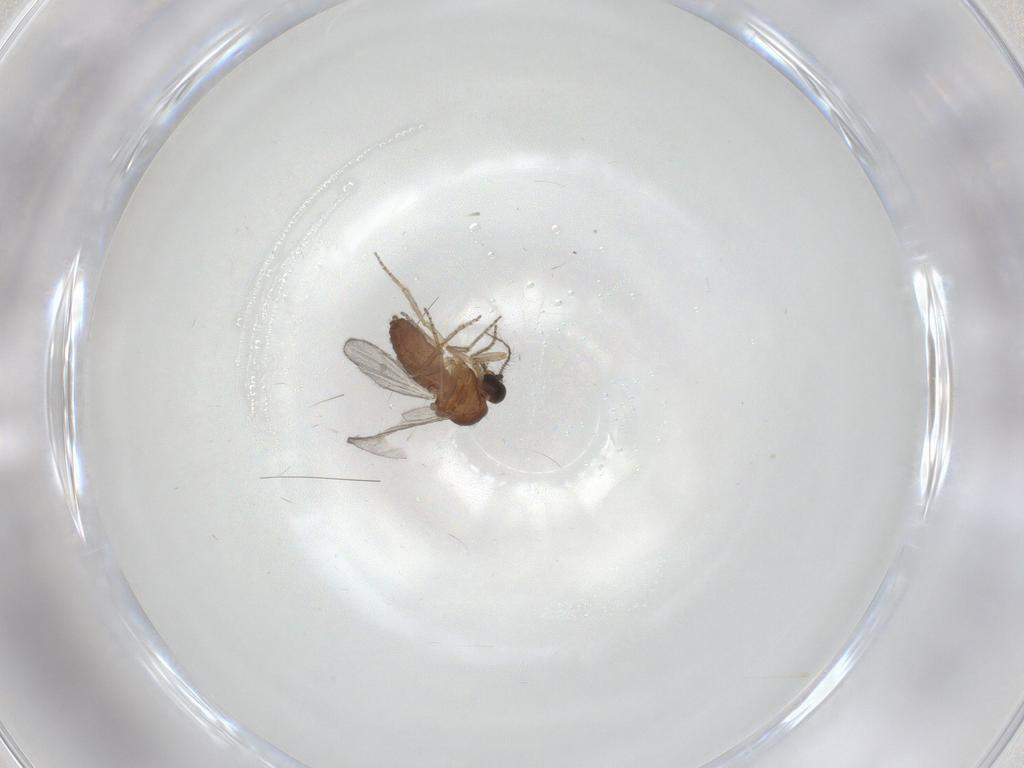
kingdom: Animalia
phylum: Arthropoda
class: Insecta
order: Diptera
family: Ceratopogonidae
